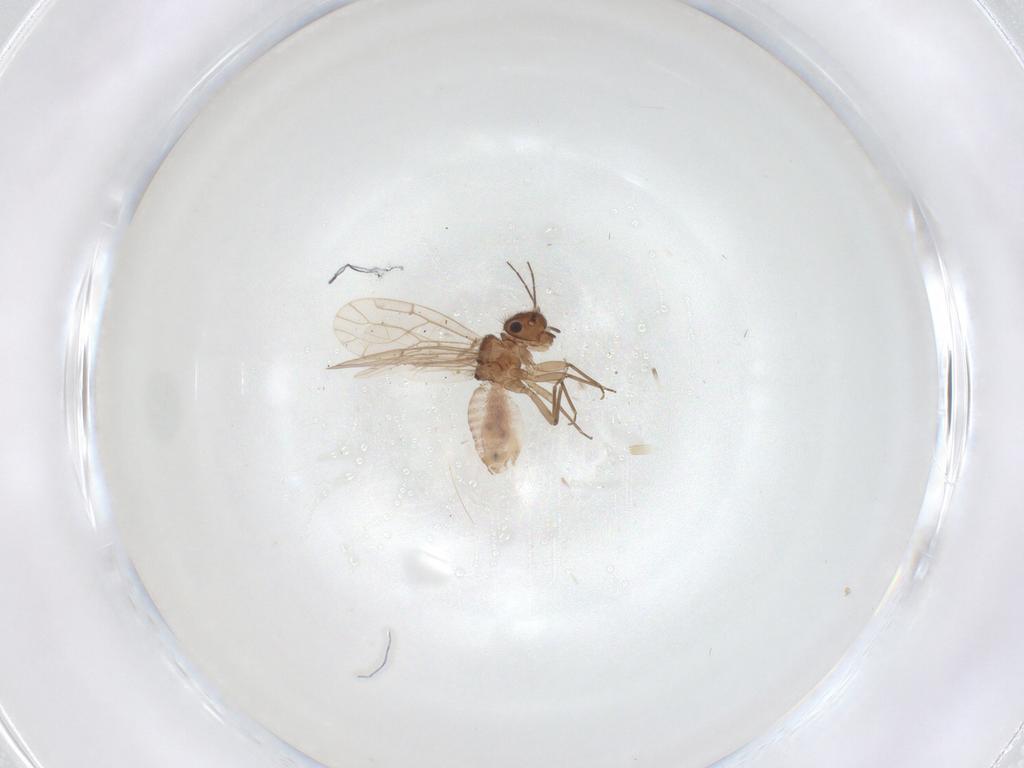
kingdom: Animalia
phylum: Arthropoda
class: Insecta
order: Psocodea
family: Ectopsocidae
